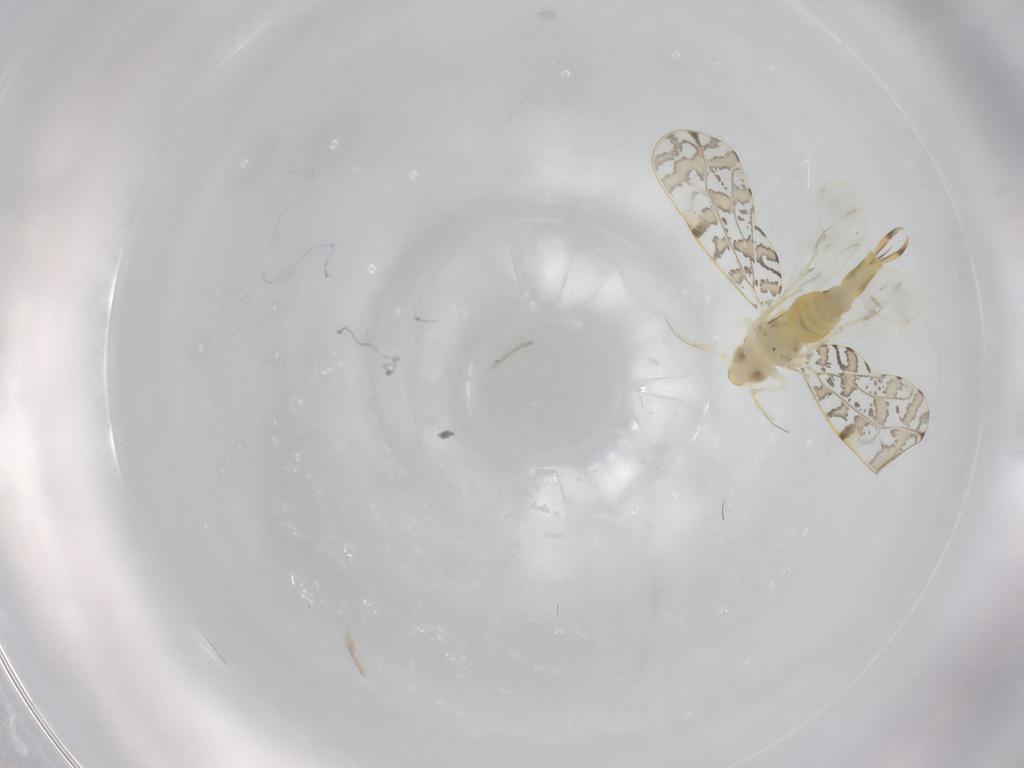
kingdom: Animalia
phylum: Arthropoda
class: Insecta
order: Hemiptera
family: Aleyrodidae
